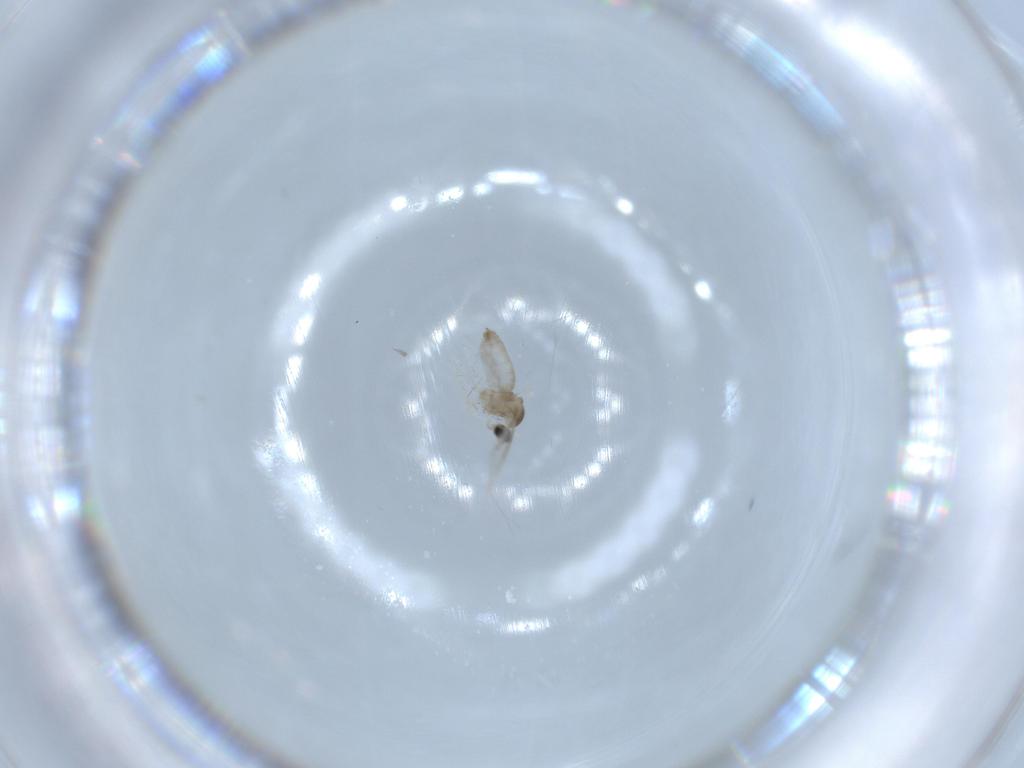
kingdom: Animalia
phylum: Arthropoda
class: Insecta
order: Diptera
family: Cecidomyiidae
